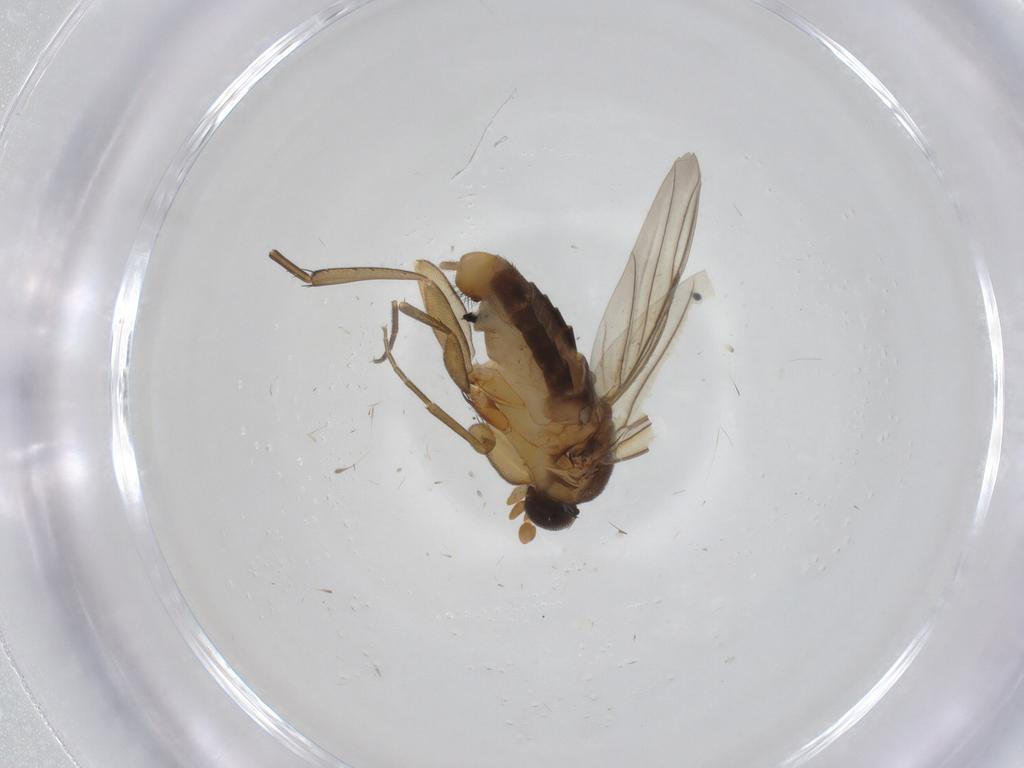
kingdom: Animalia
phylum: Arthropoda
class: Insecta
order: Diptera
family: Phoridae
